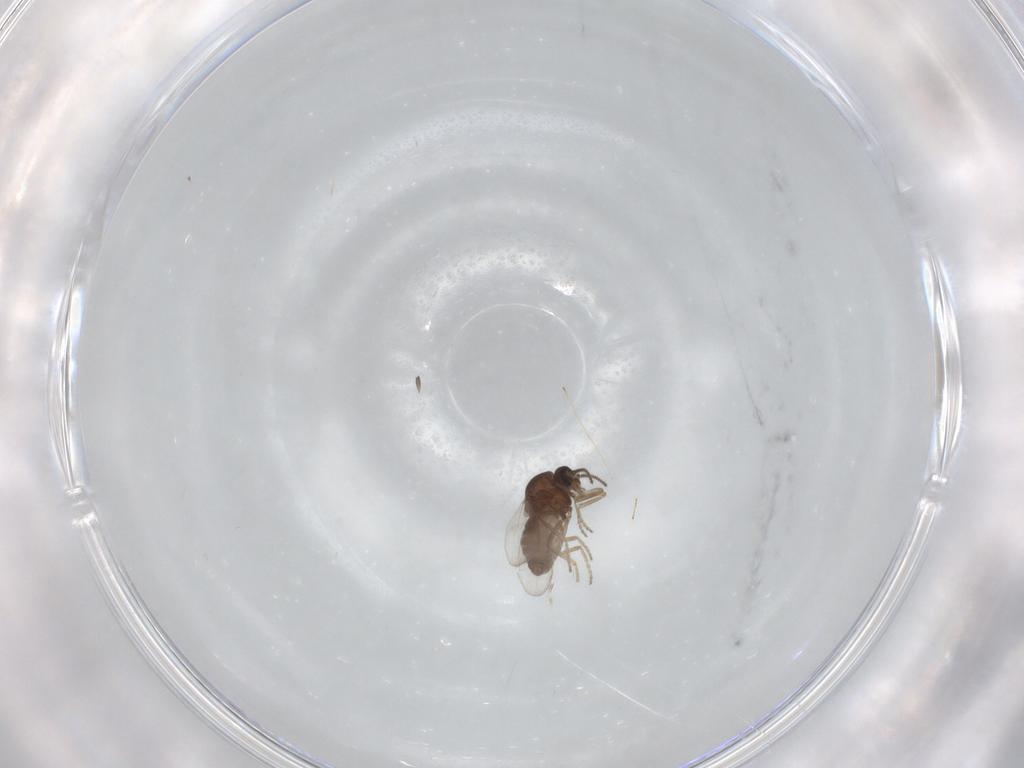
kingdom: Animalia
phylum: Arthropoda
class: Insecta
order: Diptera
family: Ceratopogonidae
